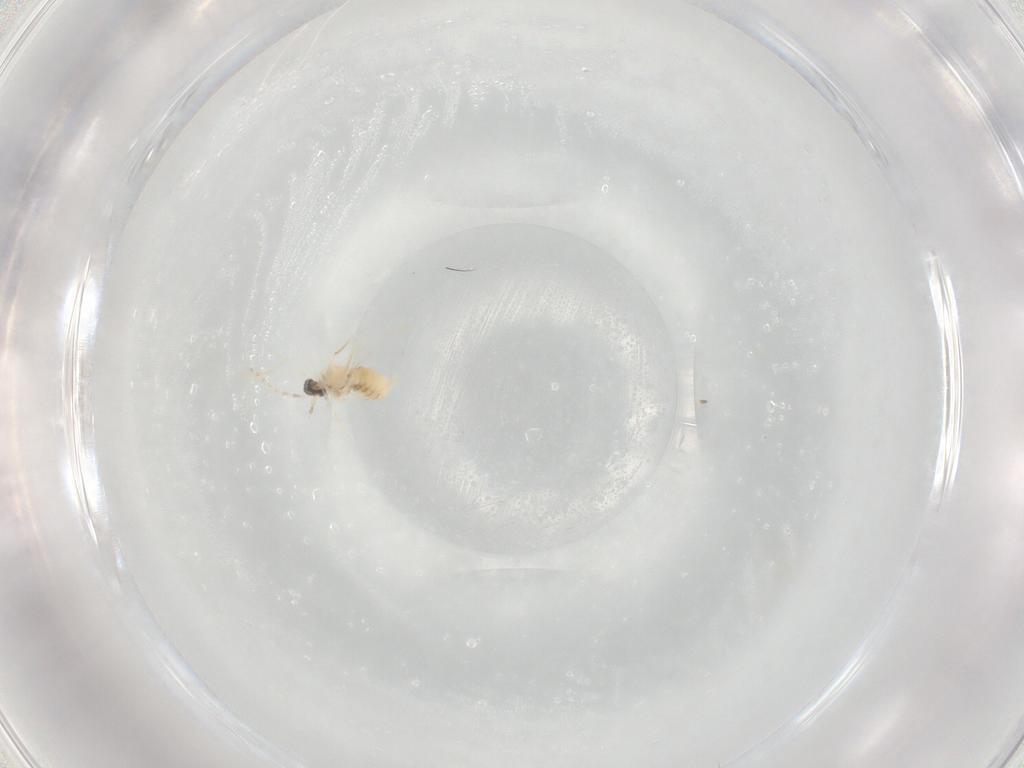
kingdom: Animalia
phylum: Arthropoda
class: Insecta
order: Diptera
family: Cecidomyiidae
